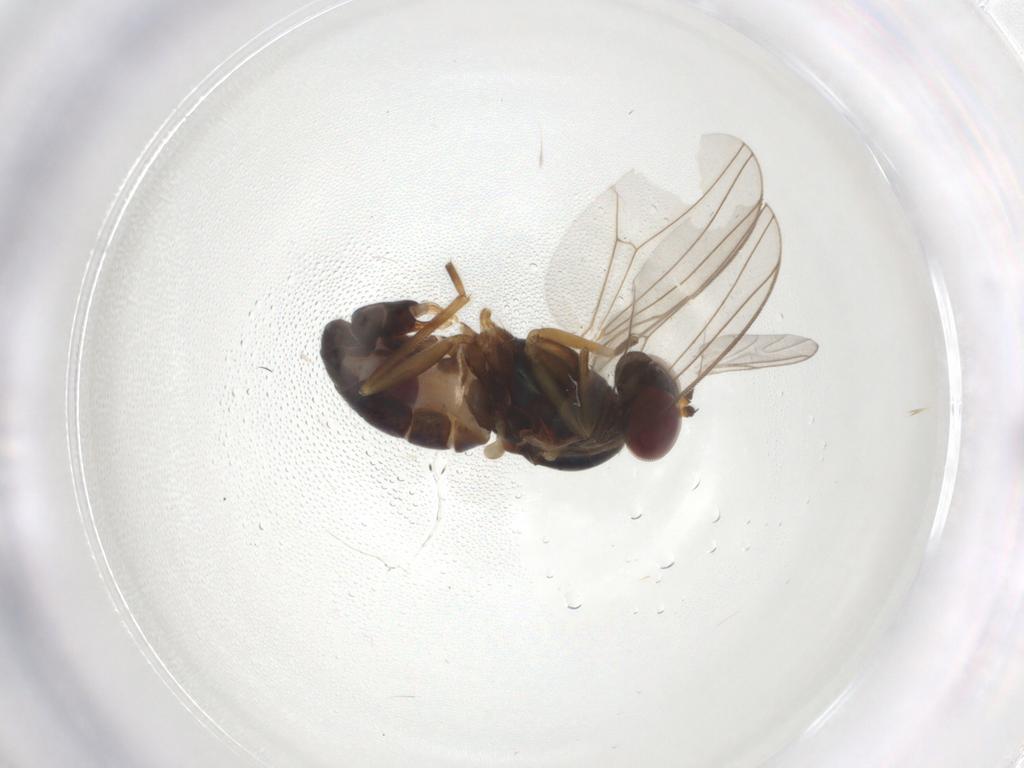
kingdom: Animalia
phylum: Arthropoda
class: Insecta
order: Diptera
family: Dolichopodidae
